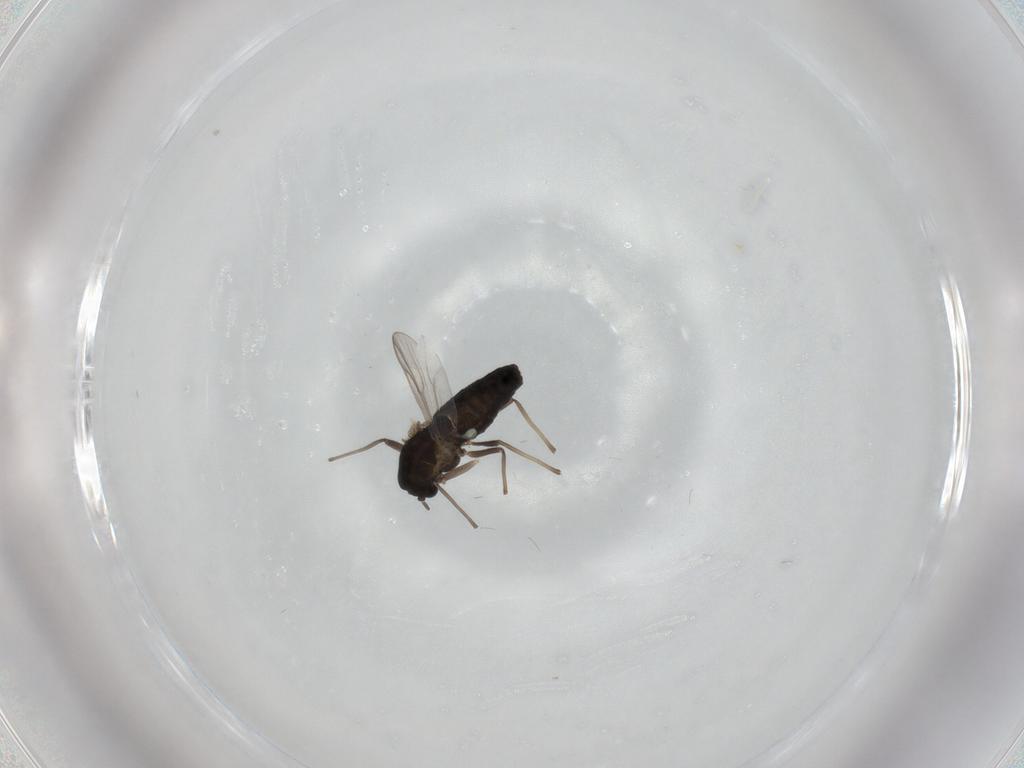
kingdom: Animalia
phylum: Arthropoda
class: Insecta
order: Diptera
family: Chironomidae
